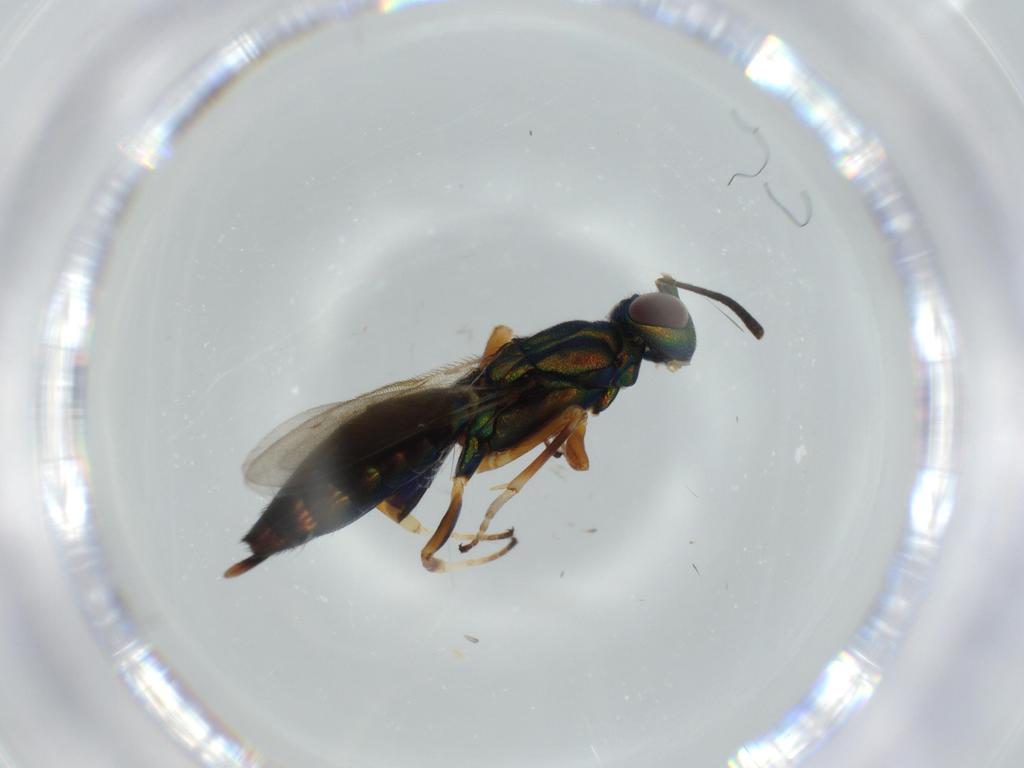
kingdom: Animalia
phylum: Arthropoda
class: Insecta
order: Hymenoptera
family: Eupelmidae
